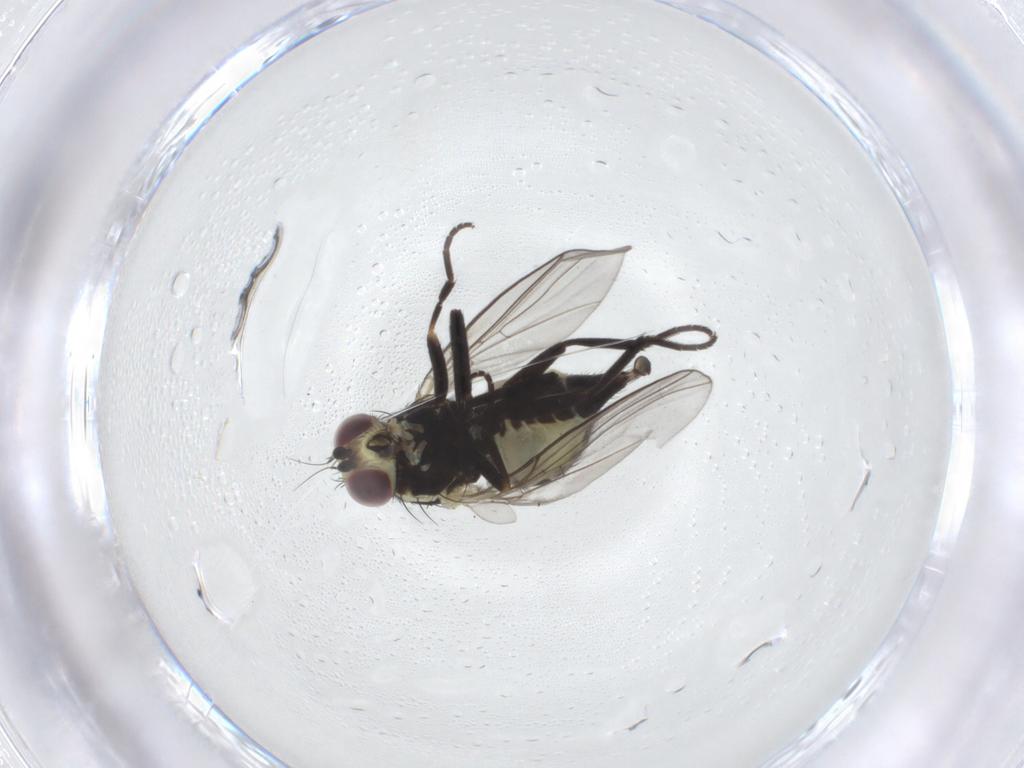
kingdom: Animalia
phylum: Arthropoda
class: Insecta
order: Diptera
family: Agromyzidae
